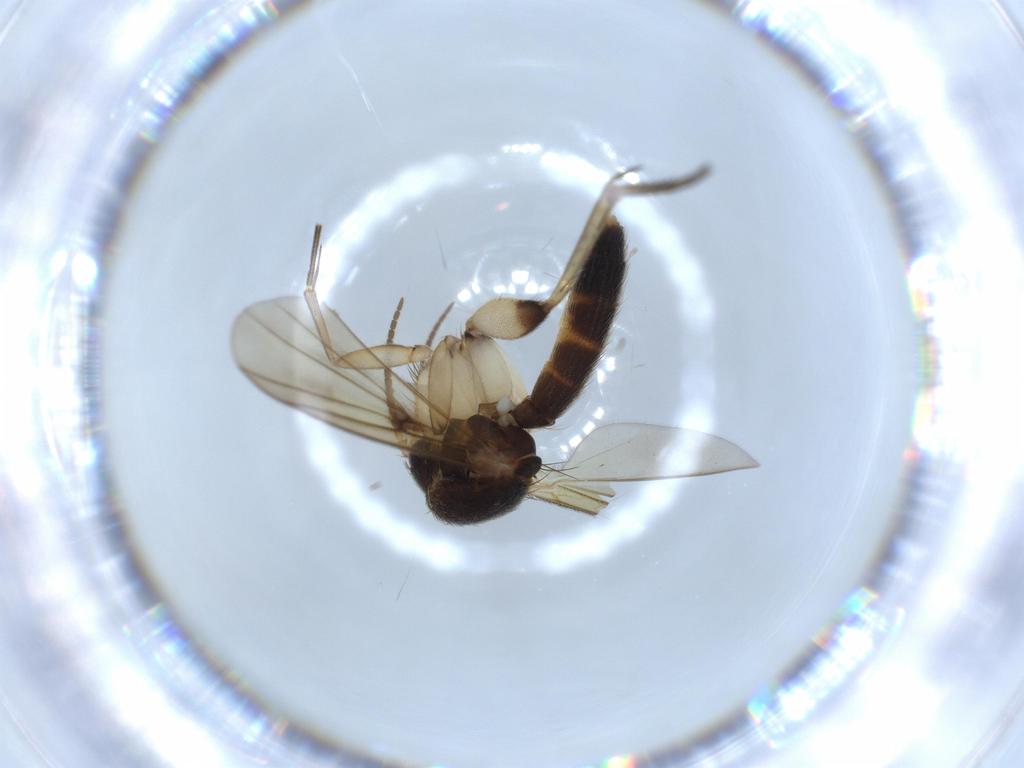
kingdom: Animalia
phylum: Arthropoda
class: Insecta
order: Diptera
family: Mycetophilidae
